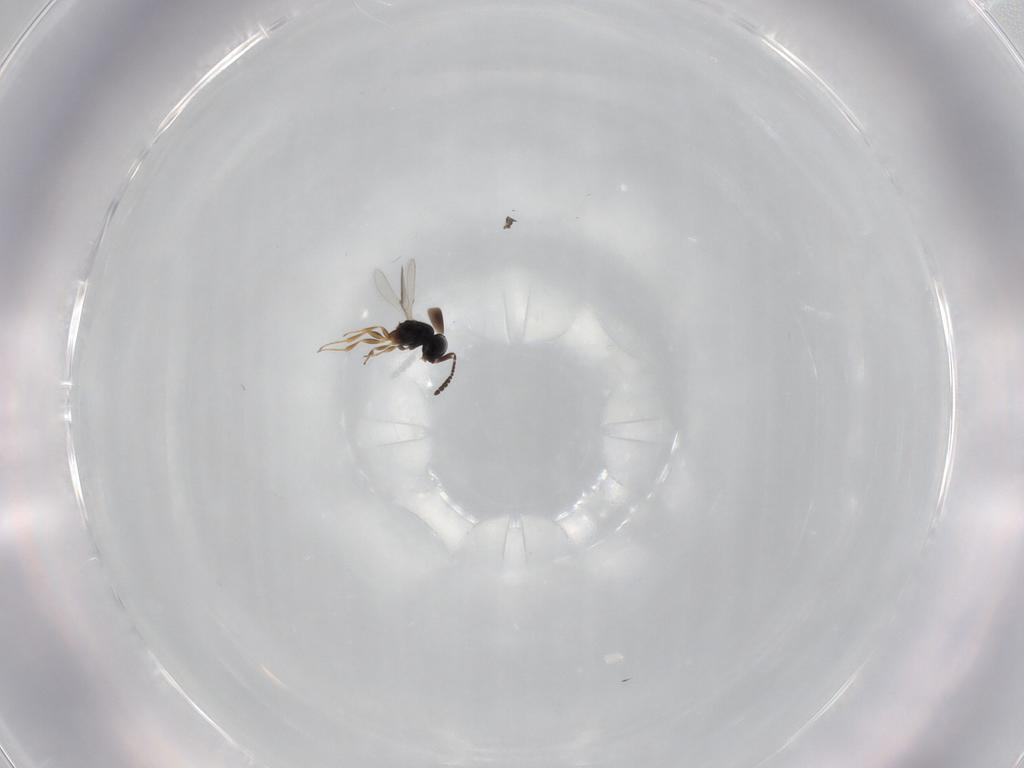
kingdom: Animalia
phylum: Arthropoda
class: Insecta
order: Hymenoptera
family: Scelionidae
